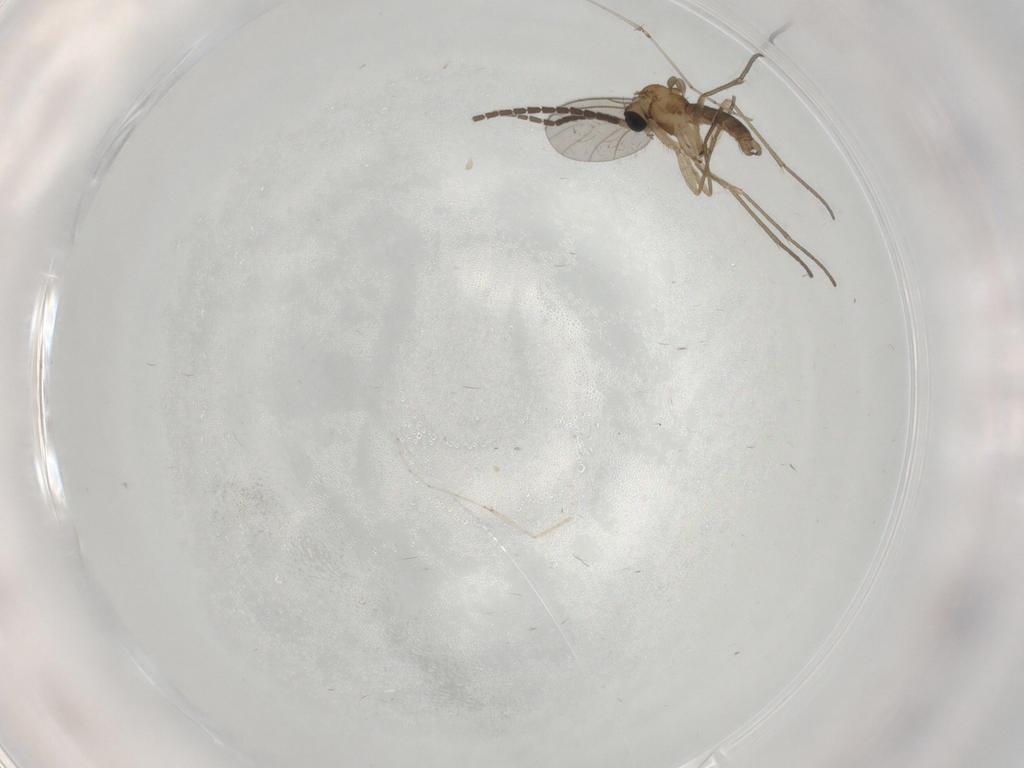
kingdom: Animalia
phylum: Arthropoda
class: Insecta
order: Diptera
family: Sciaridae
